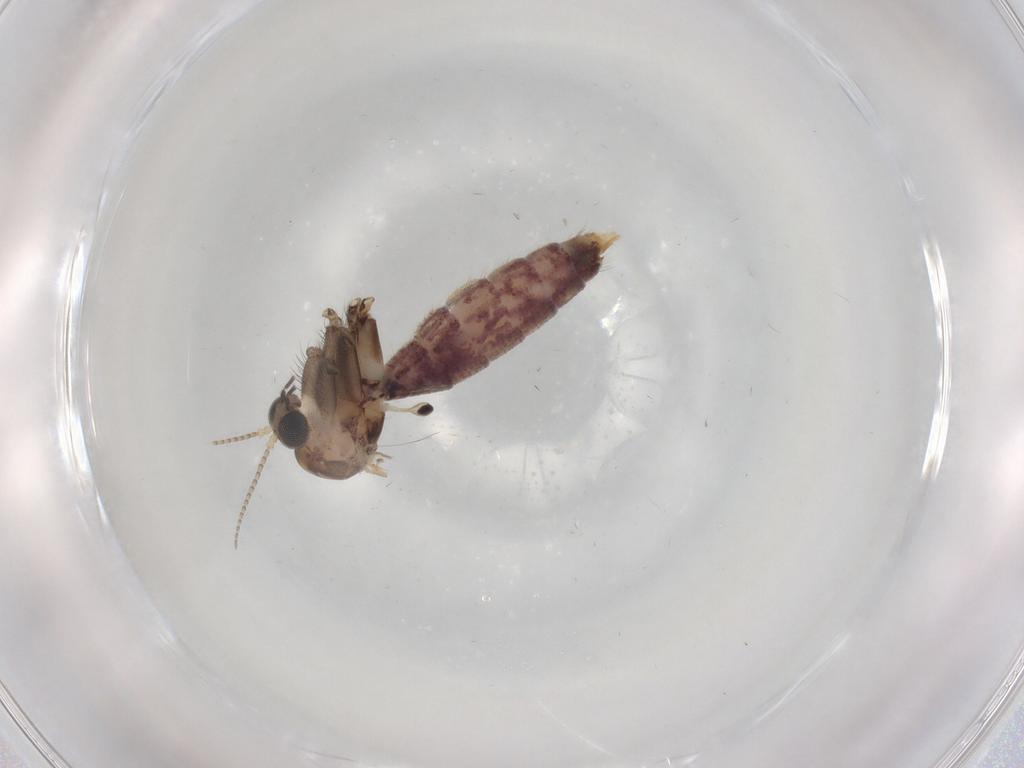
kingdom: Animalia
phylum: Arthropoda
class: Insecta
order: Diptera
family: Mycetophilidae
